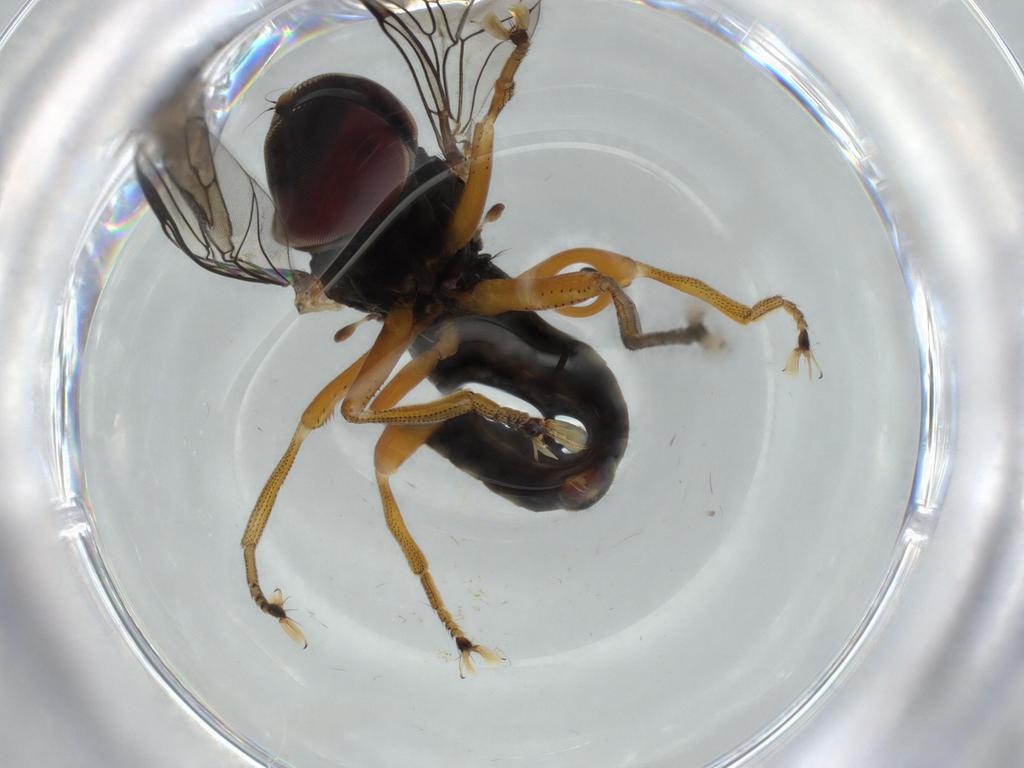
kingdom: Animalia
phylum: Arthropoda
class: Insecta
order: Diptera
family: Pipunculidae
